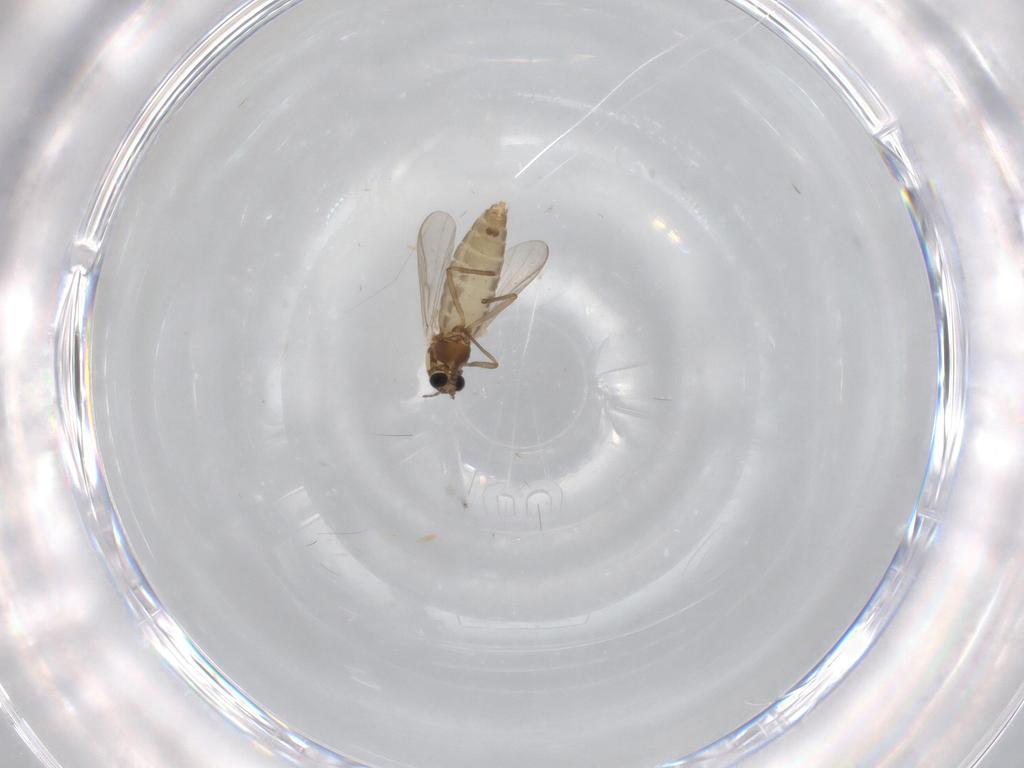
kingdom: Animalia
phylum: Arthropoda
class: Insecta
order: Diptera
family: Chironomidae
